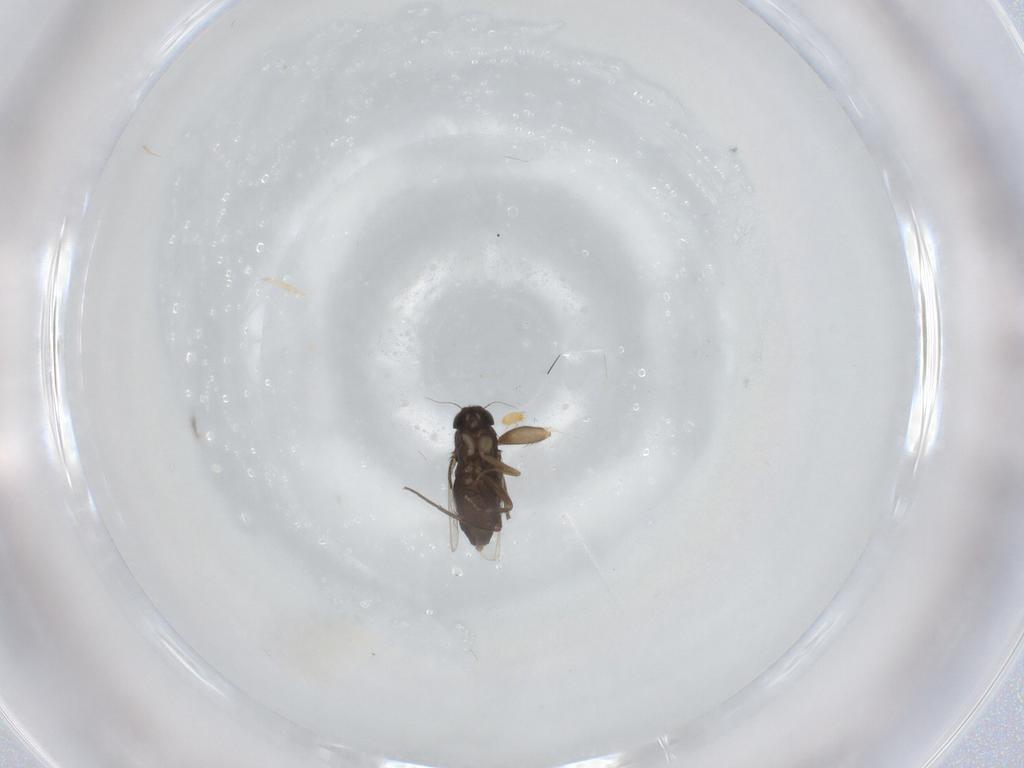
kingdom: Animalia
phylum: Arthropoda
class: Insecta
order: Diptera
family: Phoridae
